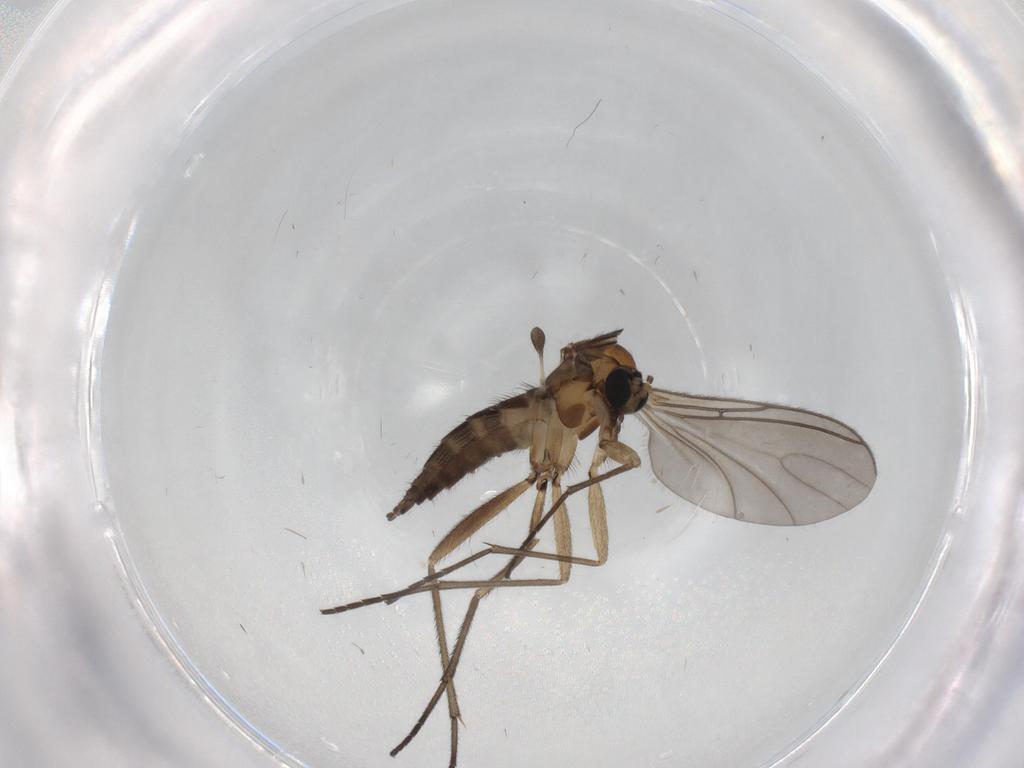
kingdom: Animalia
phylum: Arthropoda
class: Insecta
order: Diptera
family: Sciaridae
